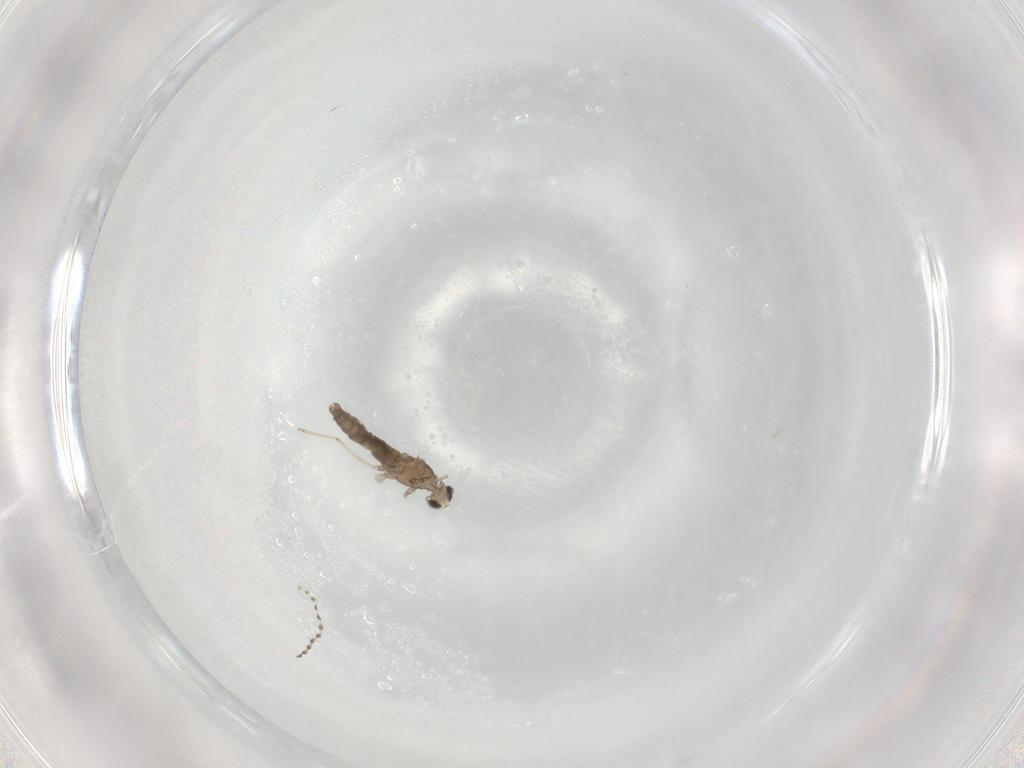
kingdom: Animalia
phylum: Arthropoda
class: Insecta
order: Diptera
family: Cecidomyiidae
